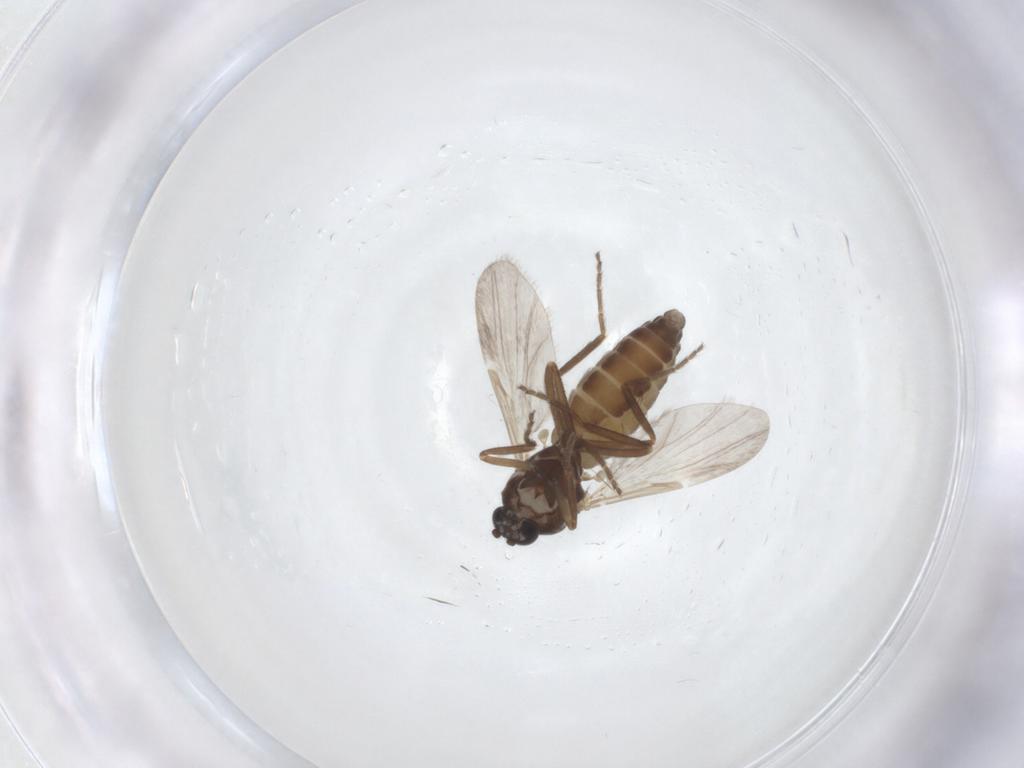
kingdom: Animalia
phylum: Arthropoda
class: Insecta
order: Diptera
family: Ceratopogonidae
